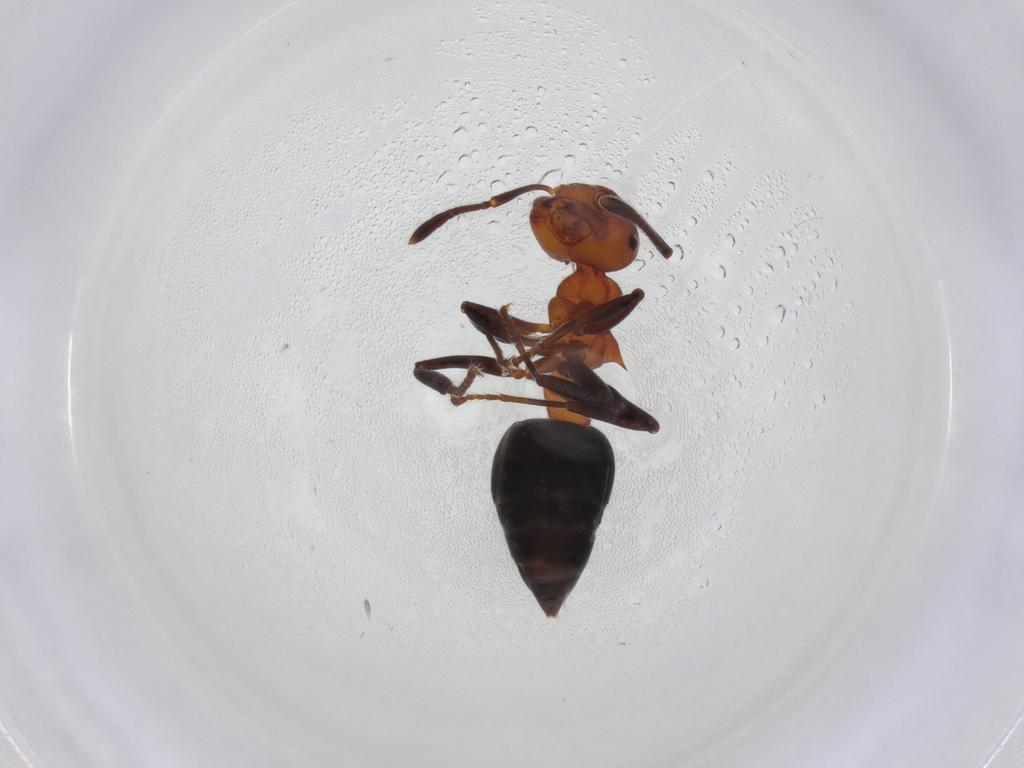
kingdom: Animalia
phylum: Arthropoda
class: Insecta
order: Hymenoptera
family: Formicidae
